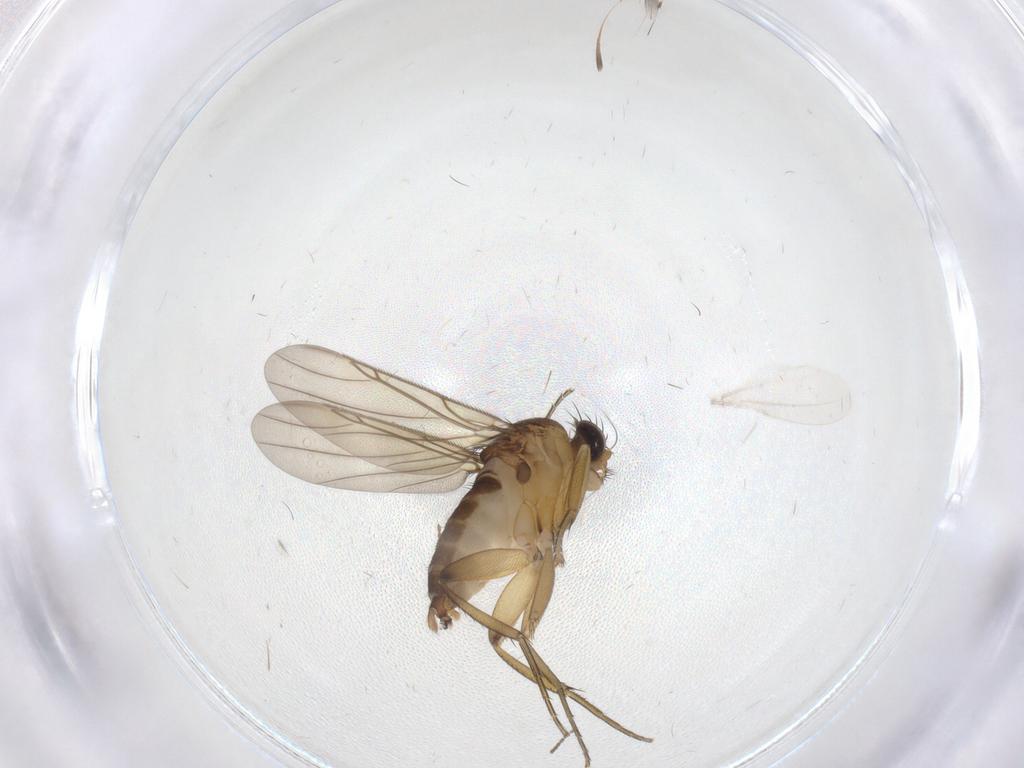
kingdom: Animalia
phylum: Arthropoda
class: Insecta
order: Diptera
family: Phoridae
